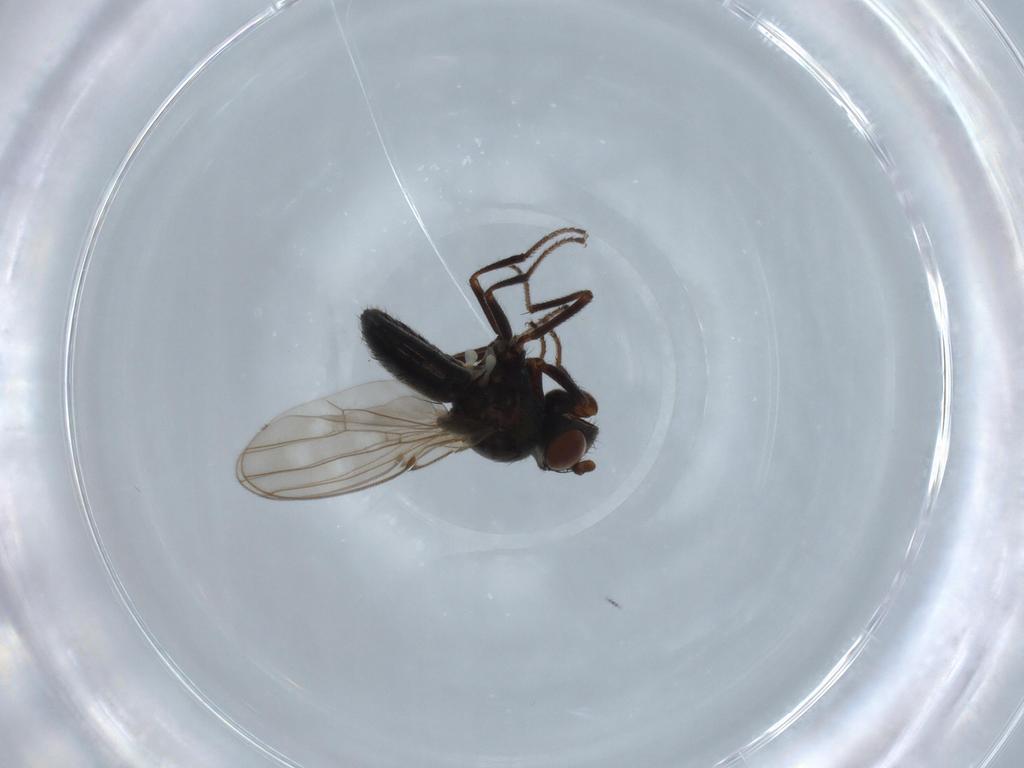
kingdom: Animalia
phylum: Arthropoda
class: Insecta
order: Diptera
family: Ephydridae
